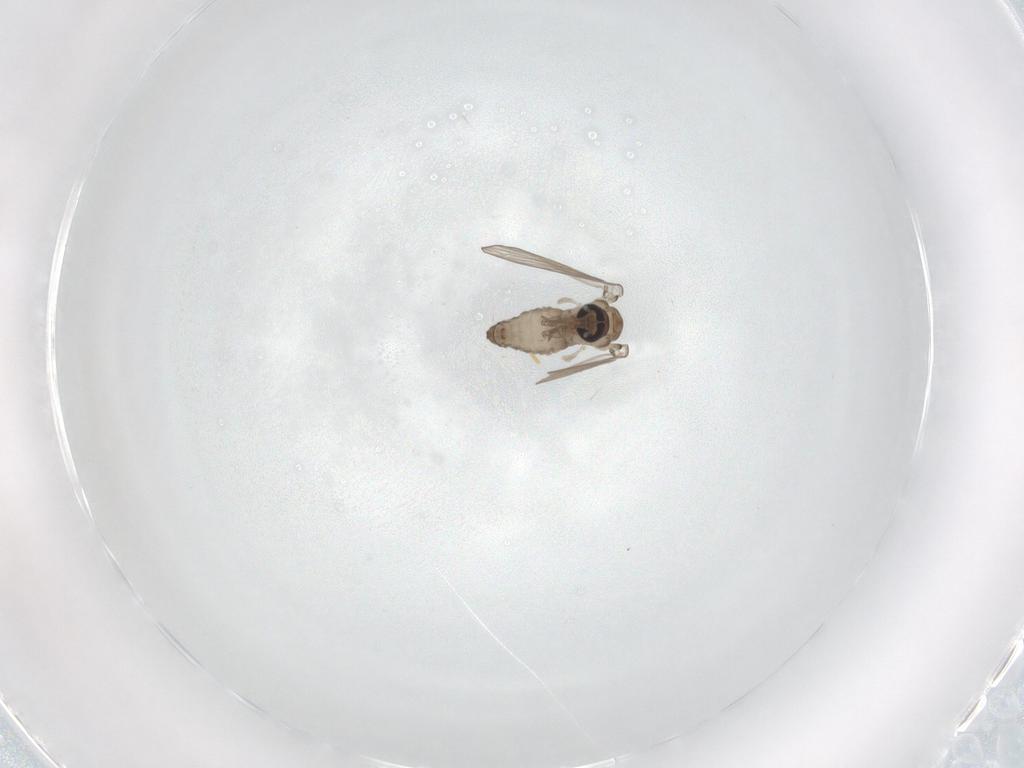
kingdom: Animalia
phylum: Arthropoda
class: Insecta
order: Diptera
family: Psychodidae
